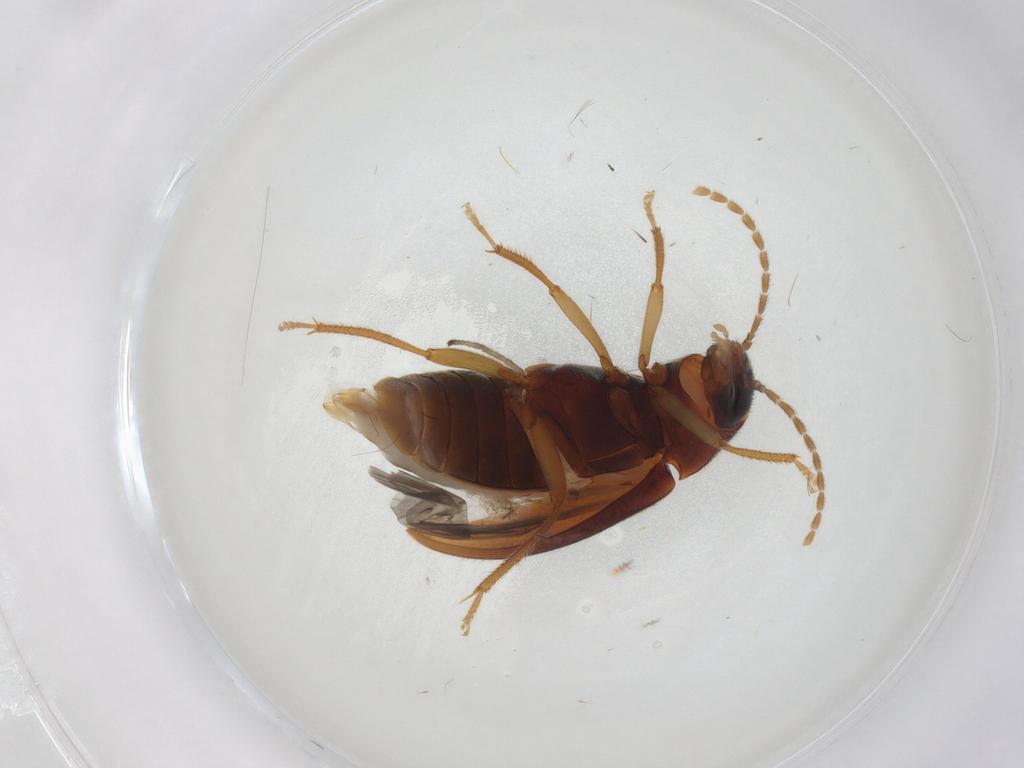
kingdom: Animalia
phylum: Arthropoda
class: Insecta
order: Coleoptera
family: Ptilodactylidae
